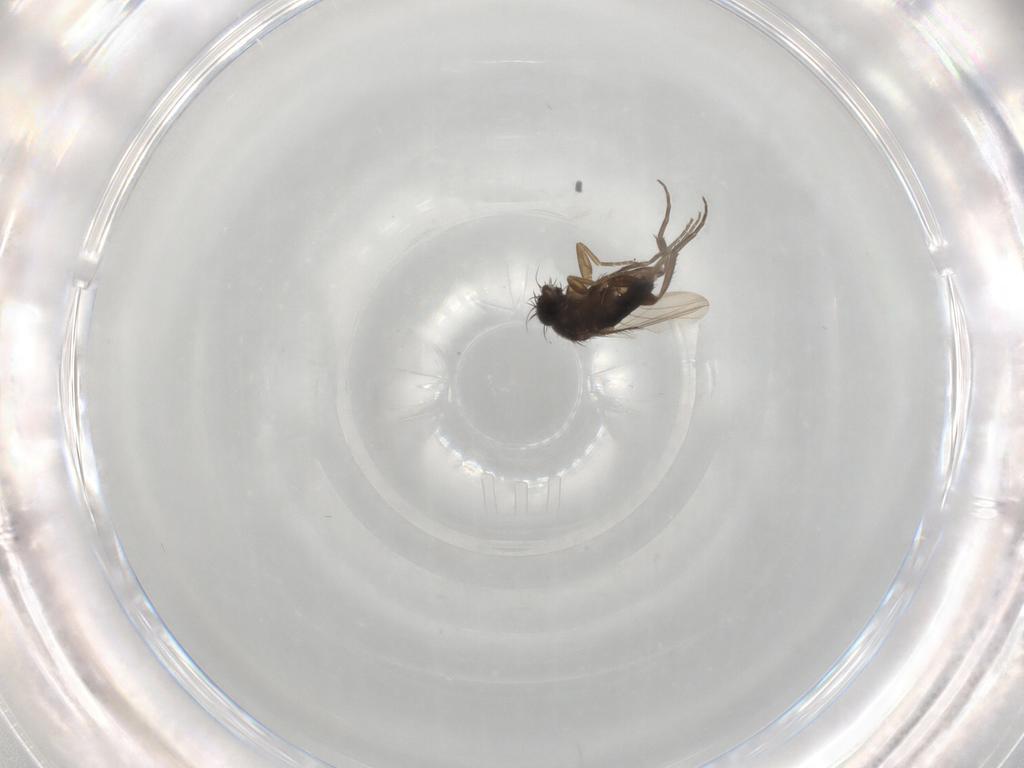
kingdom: Animalia
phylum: Arthropoda
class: Insecta
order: Diptera
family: Phoridae
